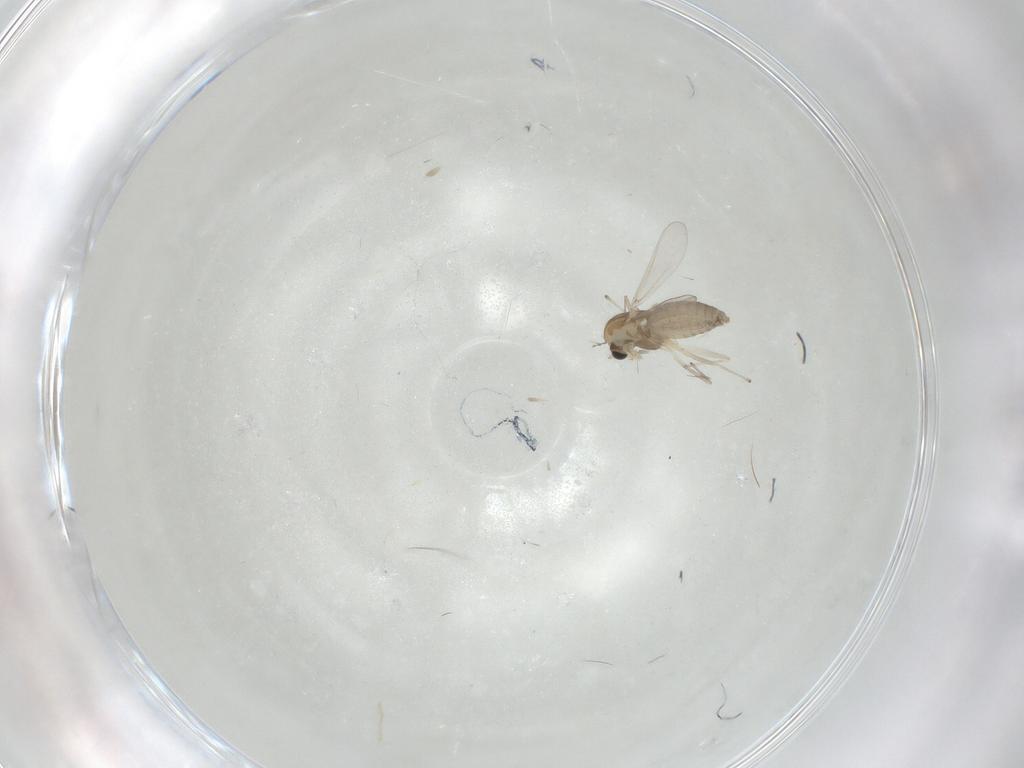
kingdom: Animalia
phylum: Arthropoda
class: Insecta
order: Diptera
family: Chironomidae
